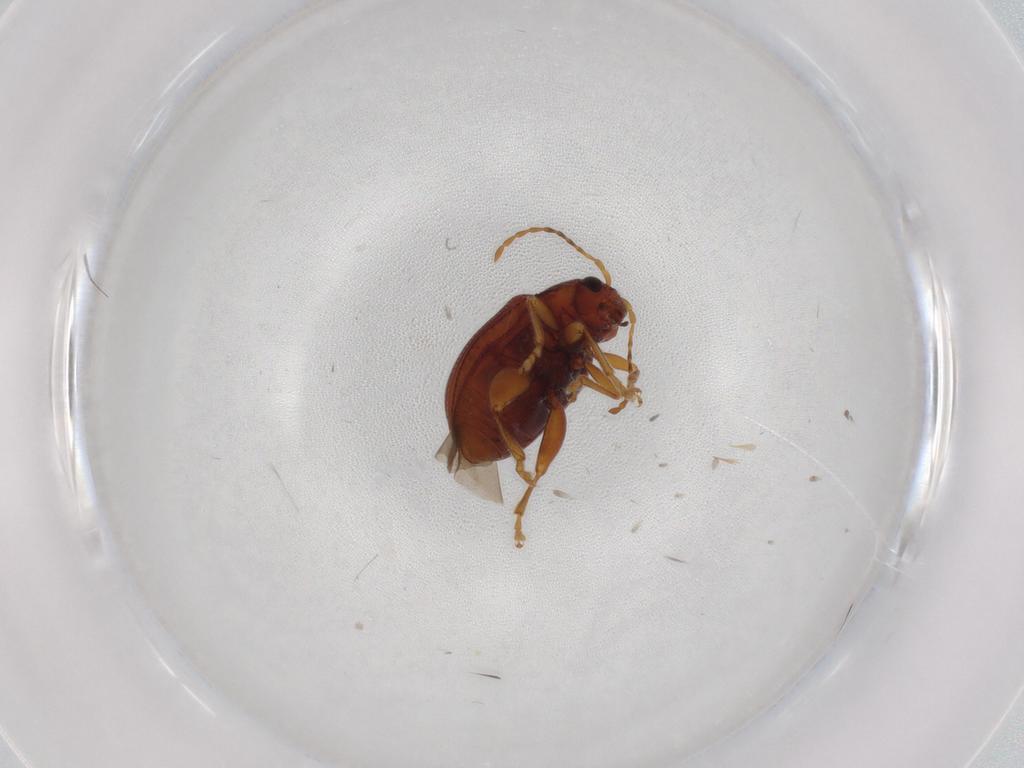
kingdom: Animalia
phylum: Arthropoda
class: Insecta
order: Coleoptera
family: Chrysomelidae
